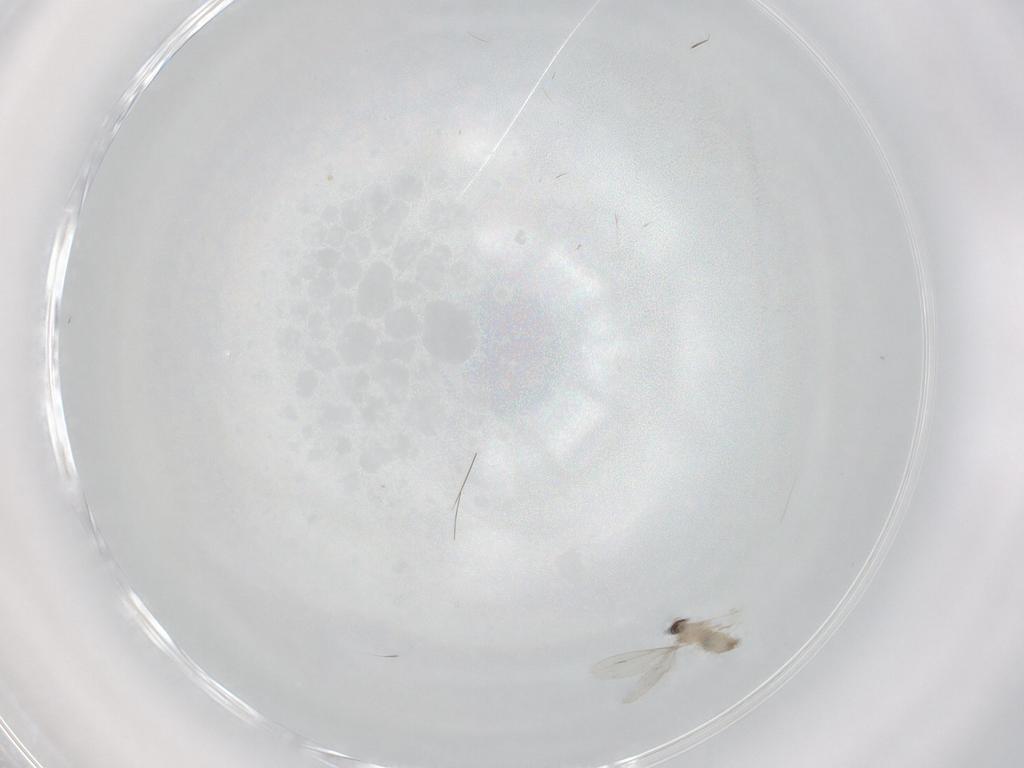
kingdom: Animalia
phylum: Arthropoda
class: Insecta
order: Diptera
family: Cecidomyiidae
